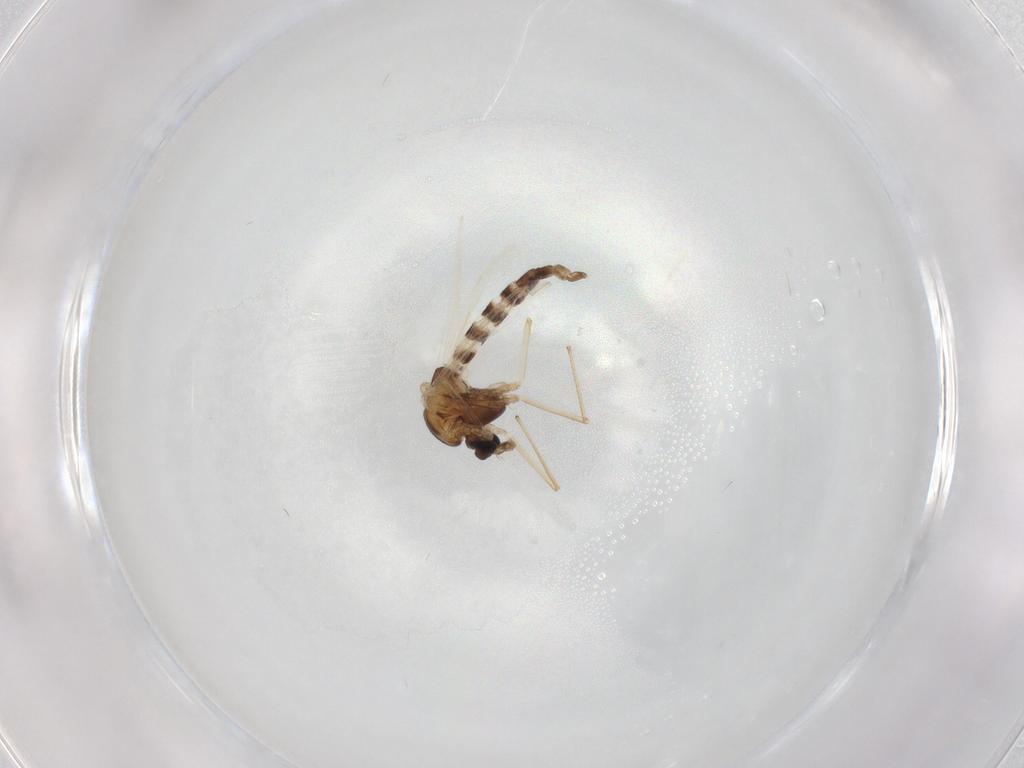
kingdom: Animalia
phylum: Arthropoda
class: Insecta
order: Diptera
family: Chironomidae
